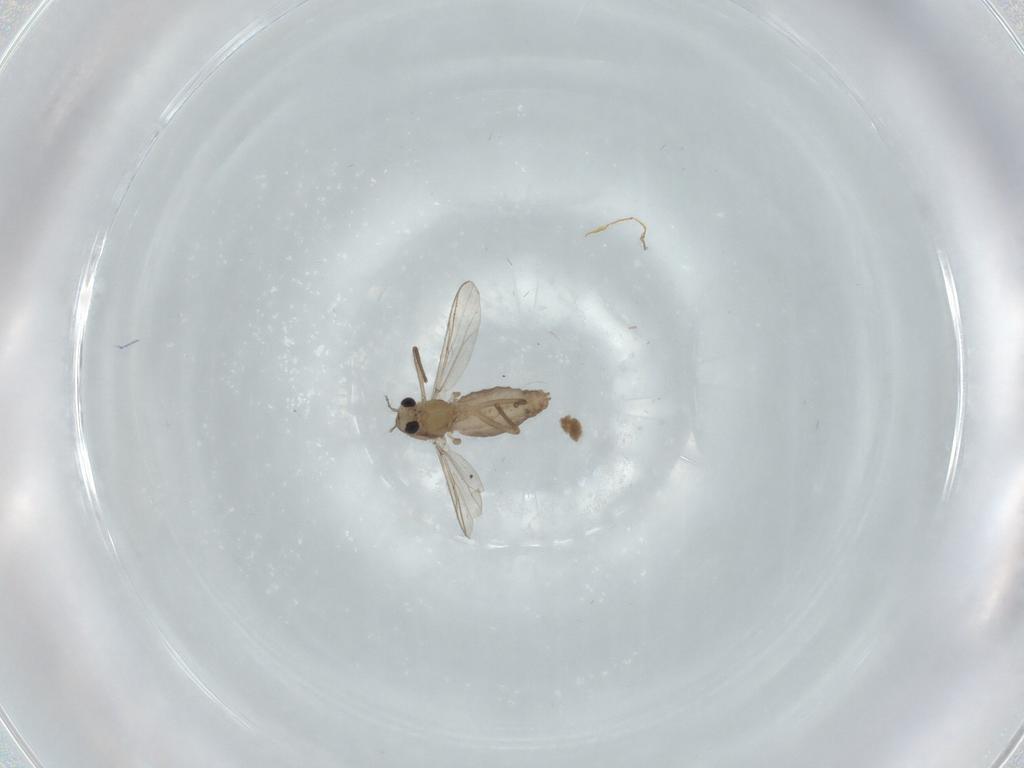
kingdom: Animalia
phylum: Arthropoda
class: Insecta
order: Diptera
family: Chironomidae
